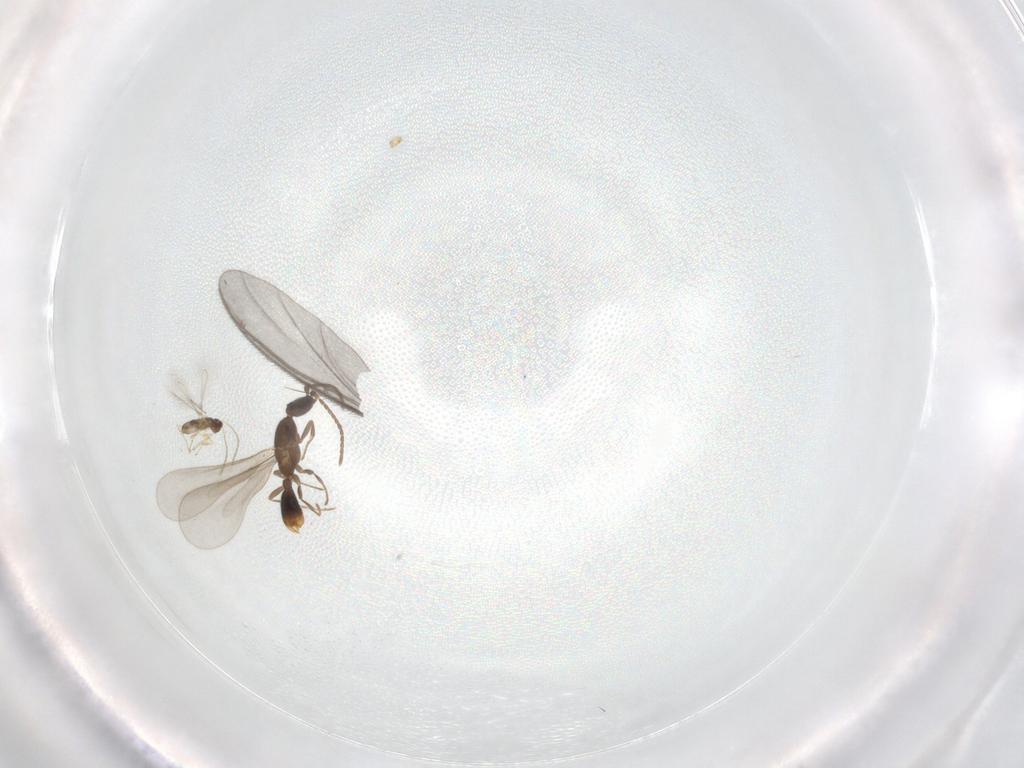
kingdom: Animalia
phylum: Arthropoda
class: Insecta
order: Hymenoptera
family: Formicidae
